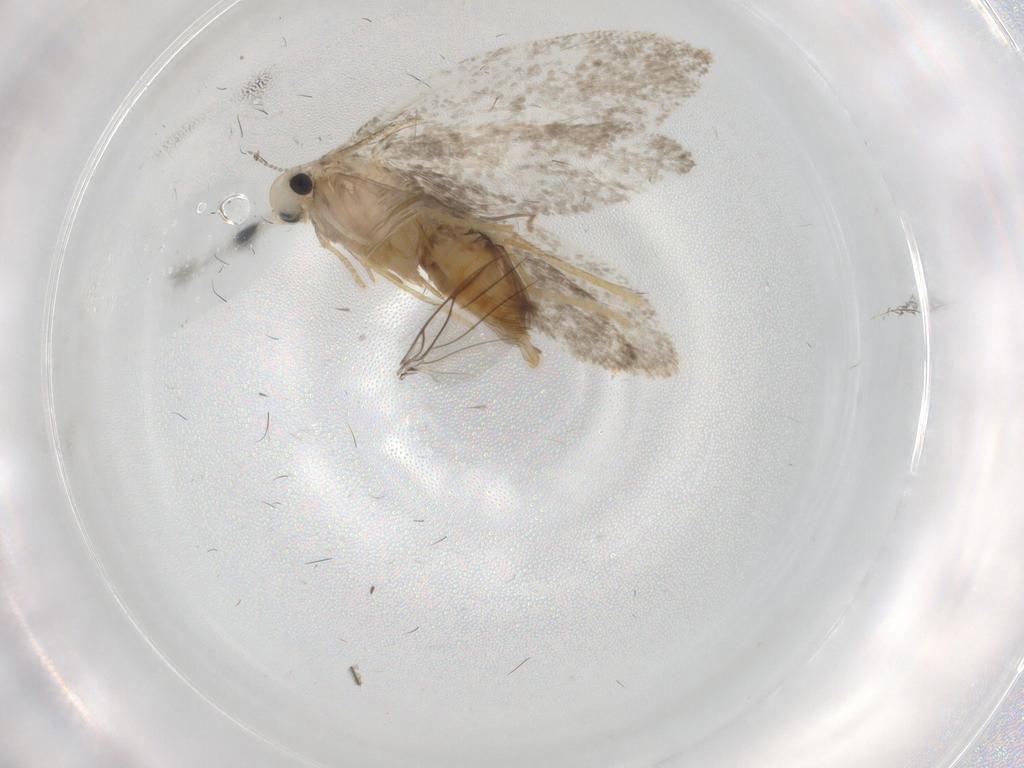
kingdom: Animalia
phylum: Arthropoda
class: Insecta
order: Lepidoptera
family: Psychidae
